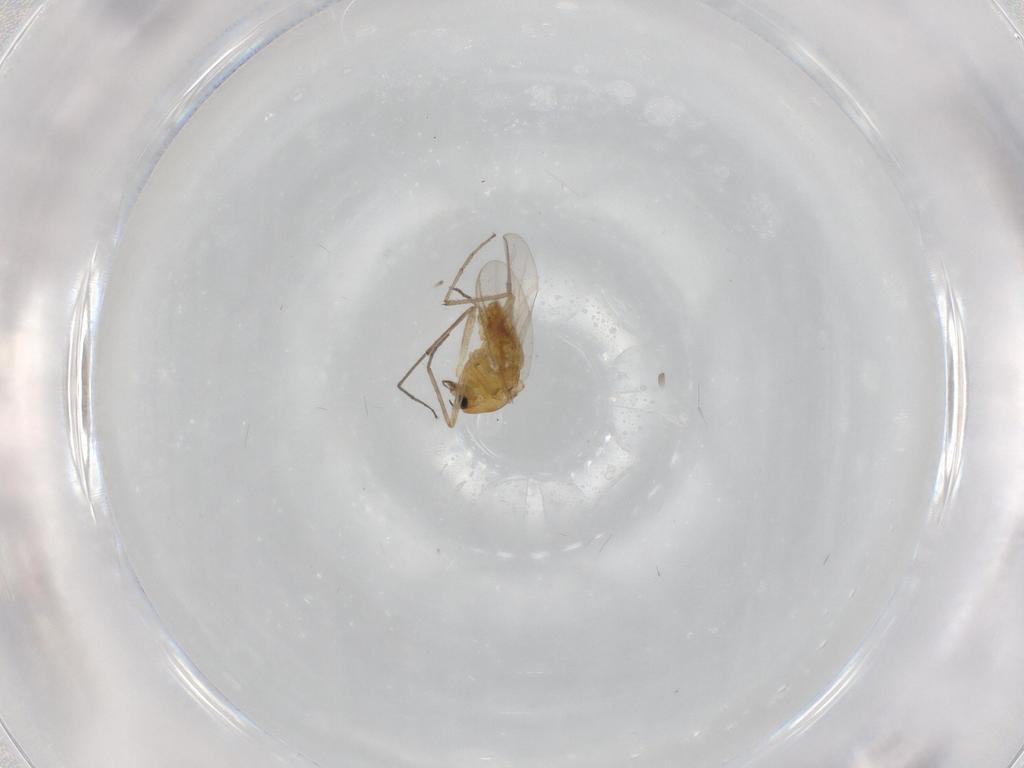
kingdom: Animalia
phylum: Arthropoda
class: Insecta
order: Diptera
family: Chironomidae
